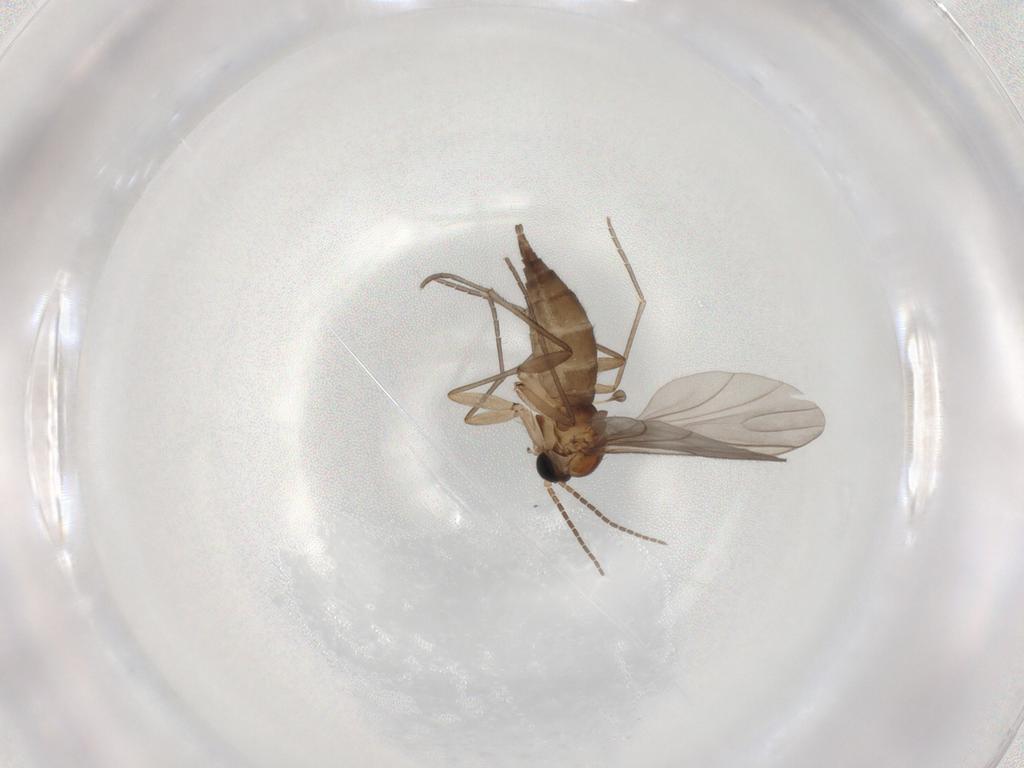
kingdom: Animalia
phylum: Arthropoda
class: Insecta
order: Diptera
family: Sciaridae
